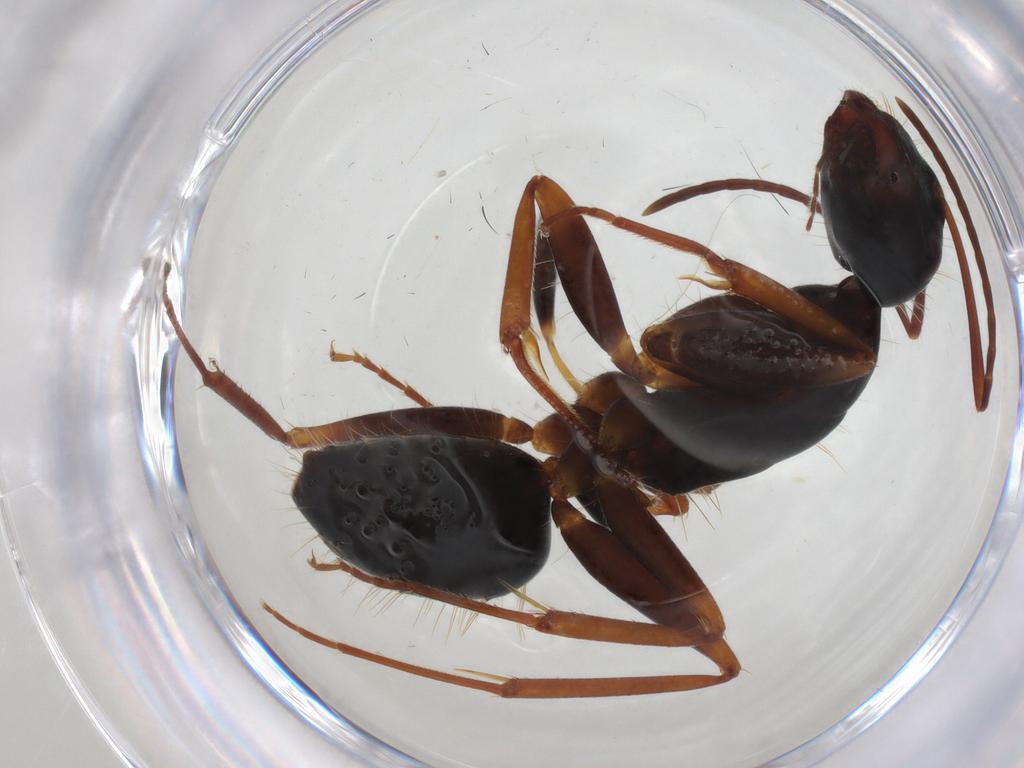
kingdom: Animalia
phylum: Arthropoda
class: Insecta
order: Hymenoptera
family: Formicidae
